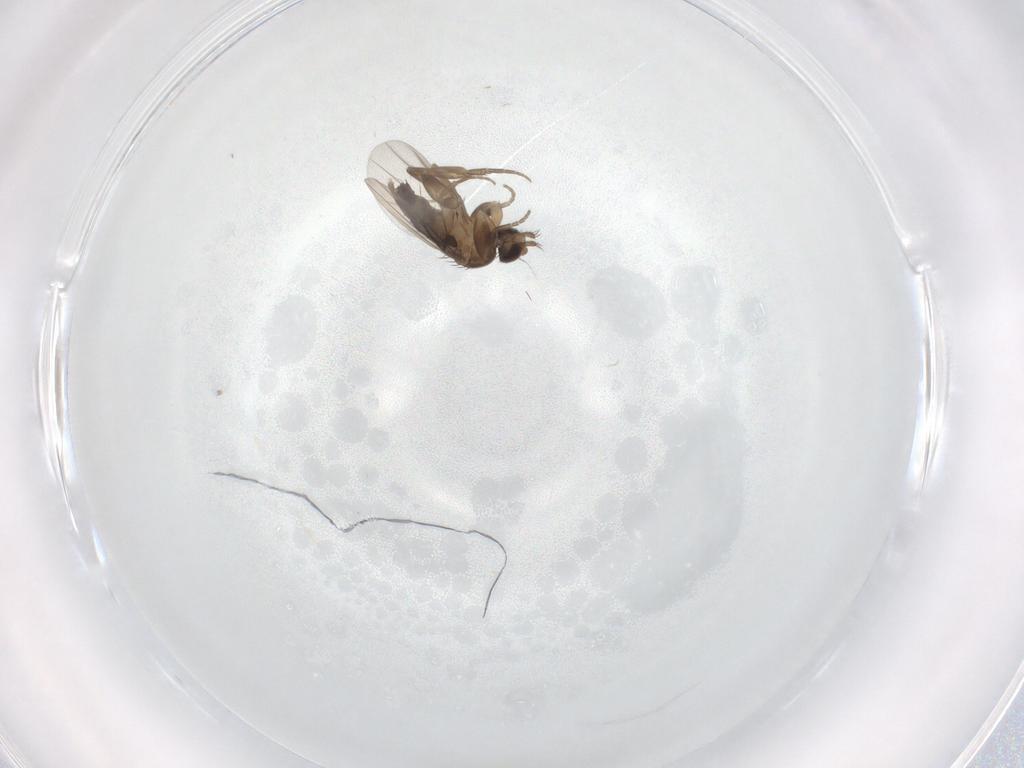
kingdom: Animalia
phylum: Arthropoda
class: Insecta
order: Diptera
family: Phoridae
